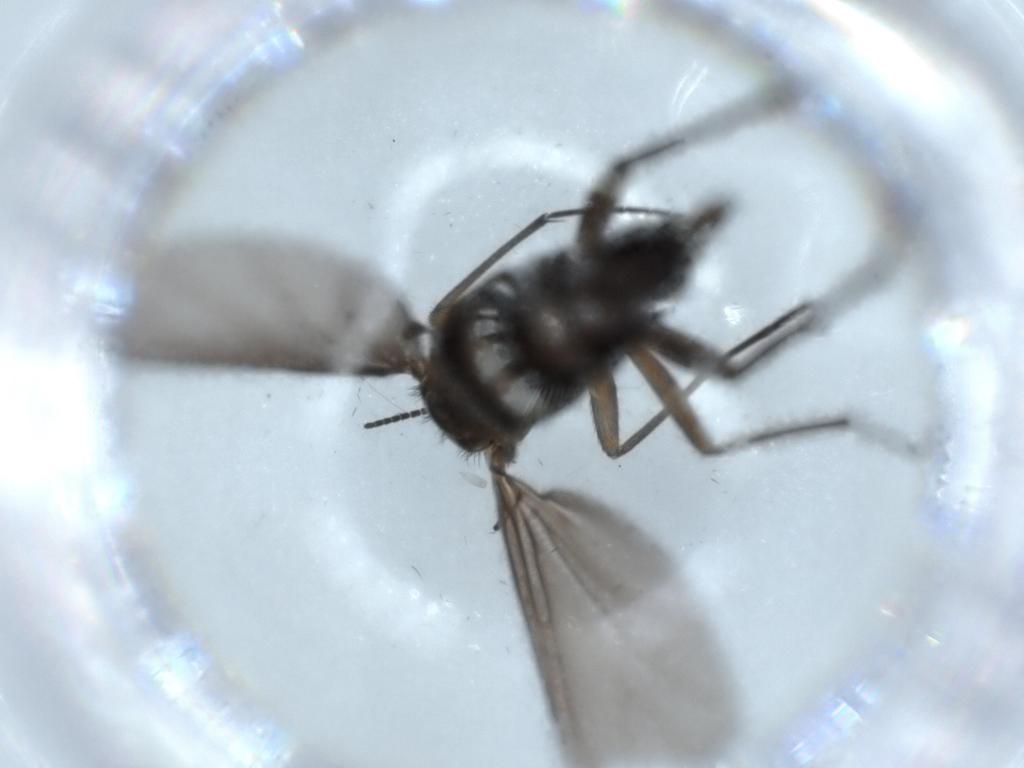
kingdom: Animalia
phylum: Arthropoda
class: Insecta
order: Diptera
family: Sciaridae
